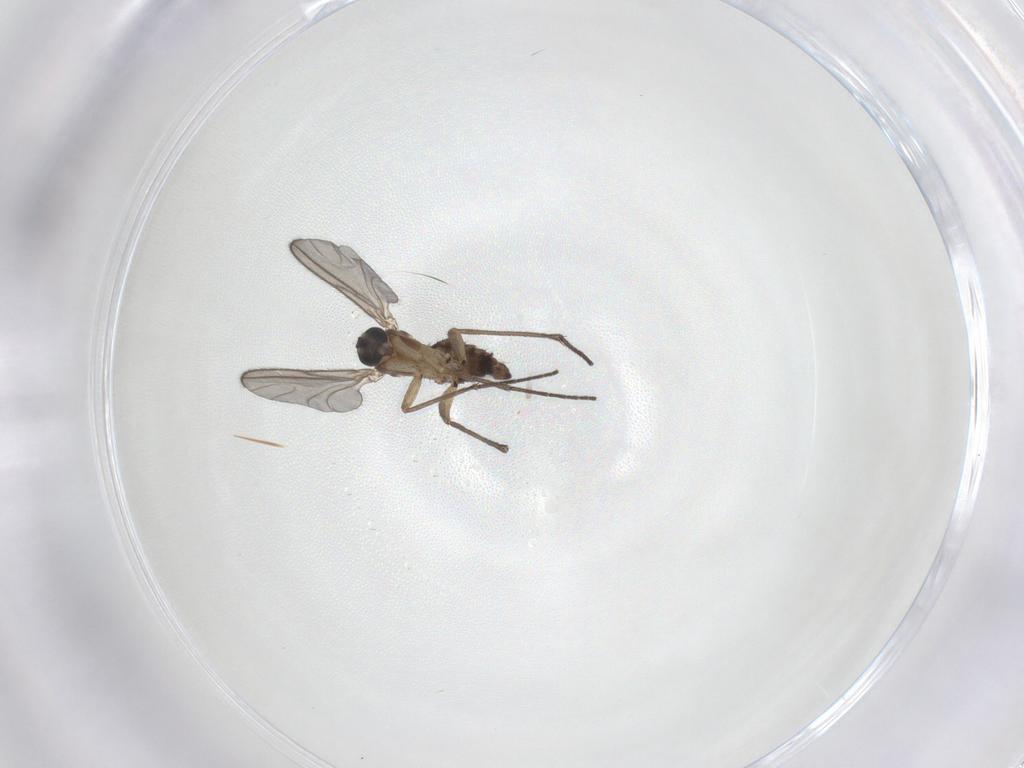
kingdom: Animalia
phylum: Arthropoda
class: Insecta
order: Diptera
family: Sciaridae
